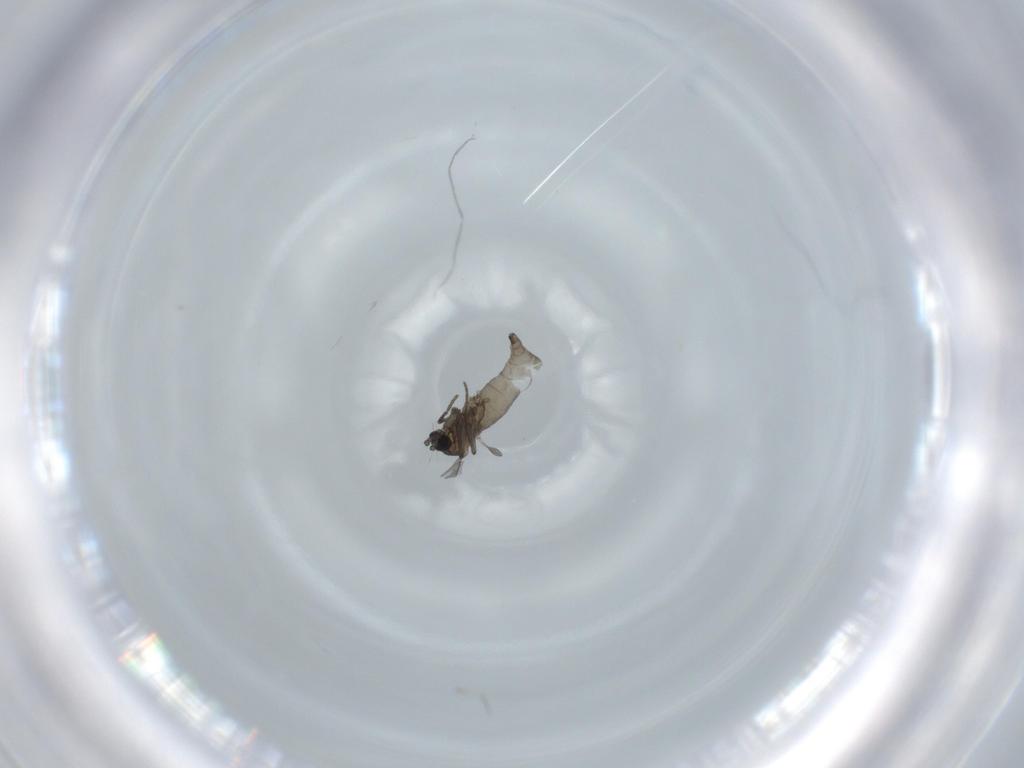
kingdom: Animalia
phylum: Arthropoda
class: Insecta
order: Diptera
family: Sciaridae
